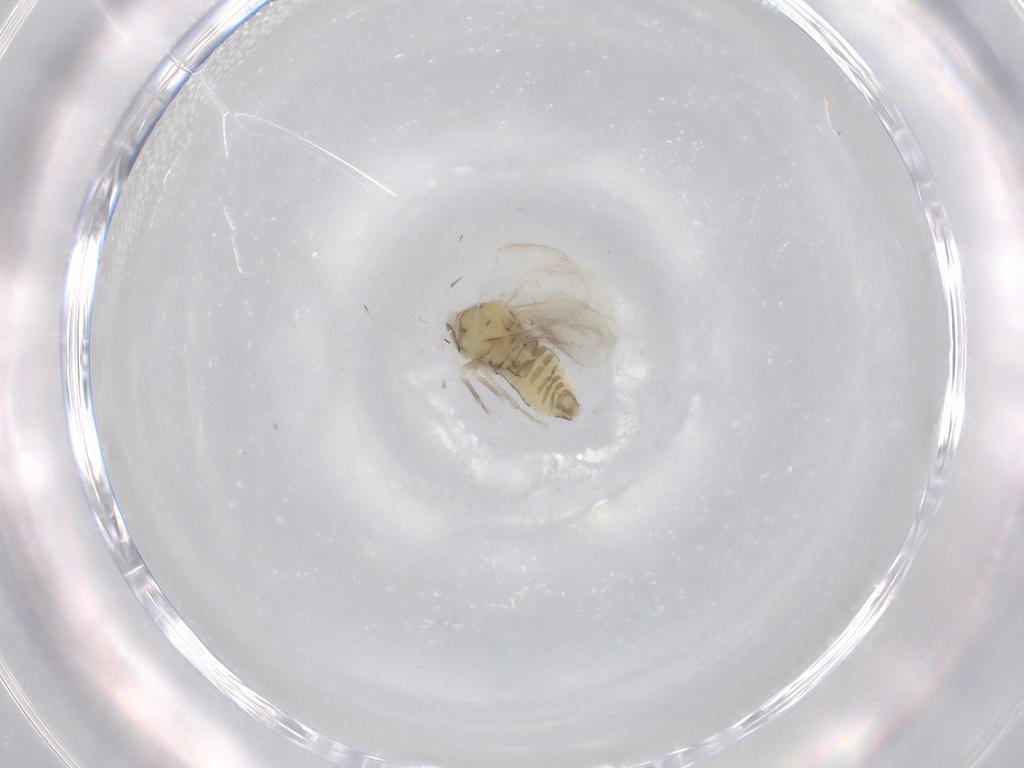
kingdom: Animalia
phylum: Arthropoda
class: Insecta
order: Hemiptera
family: Aleyrodidae
